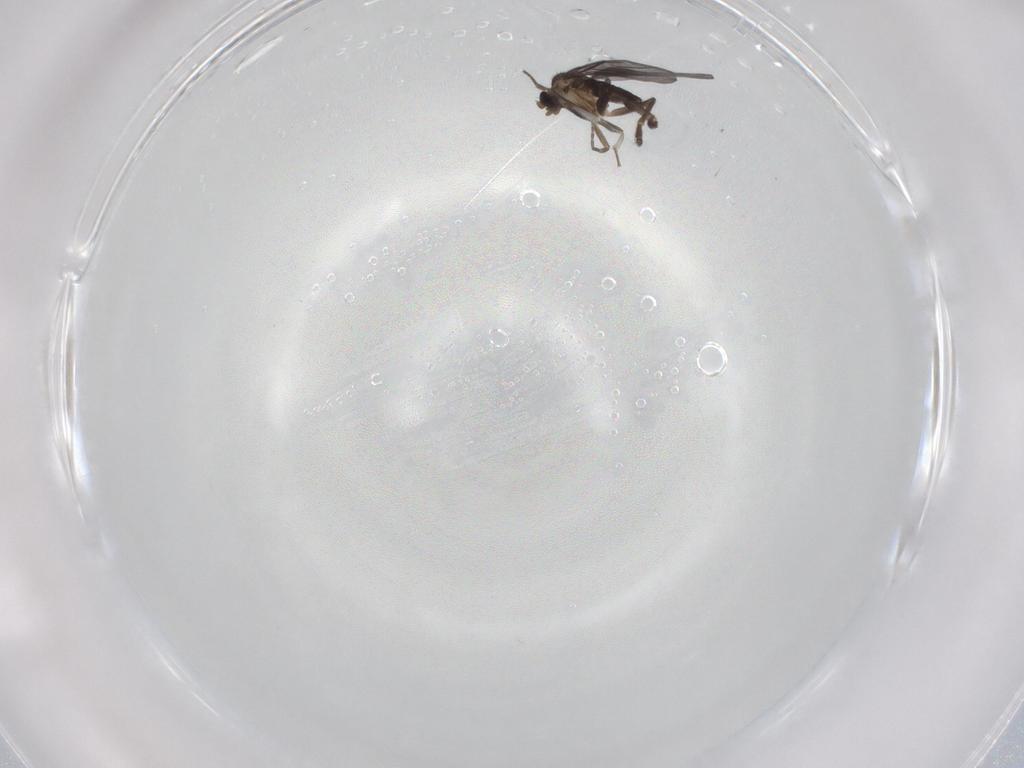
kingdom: Animalia
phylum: Arthropoda
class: Insecta
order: Diptera
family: Phoridae
